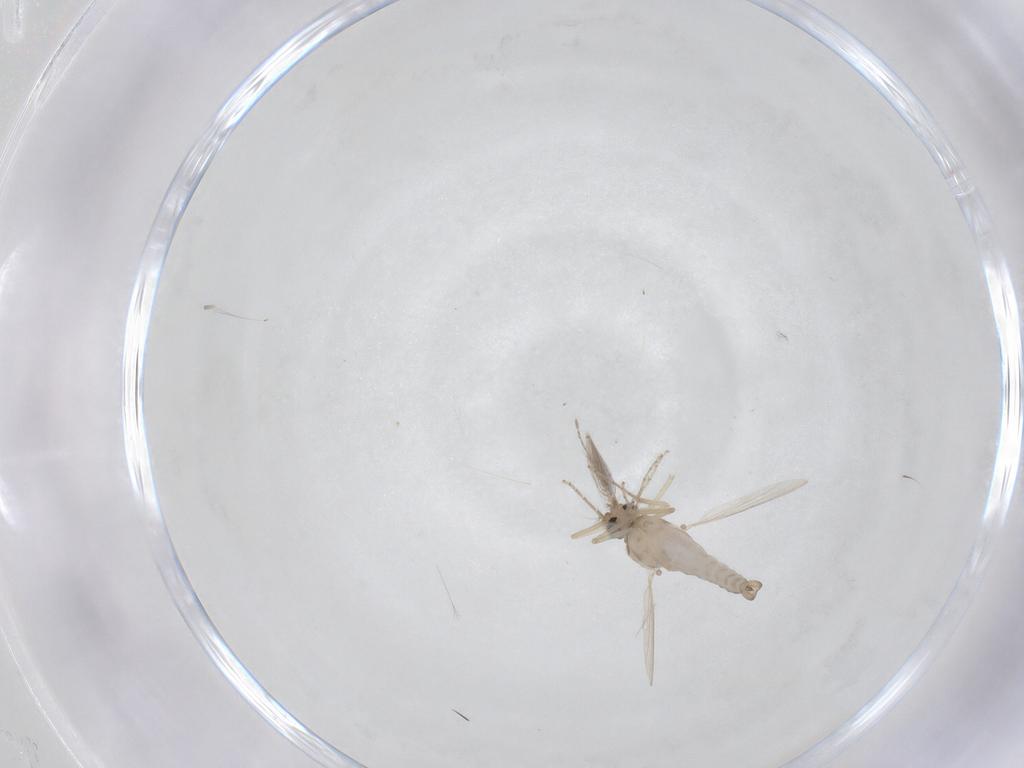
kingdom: Animalia
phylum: Arthropoda
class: Insecta
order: Diptera
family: Ceratopogonidae
